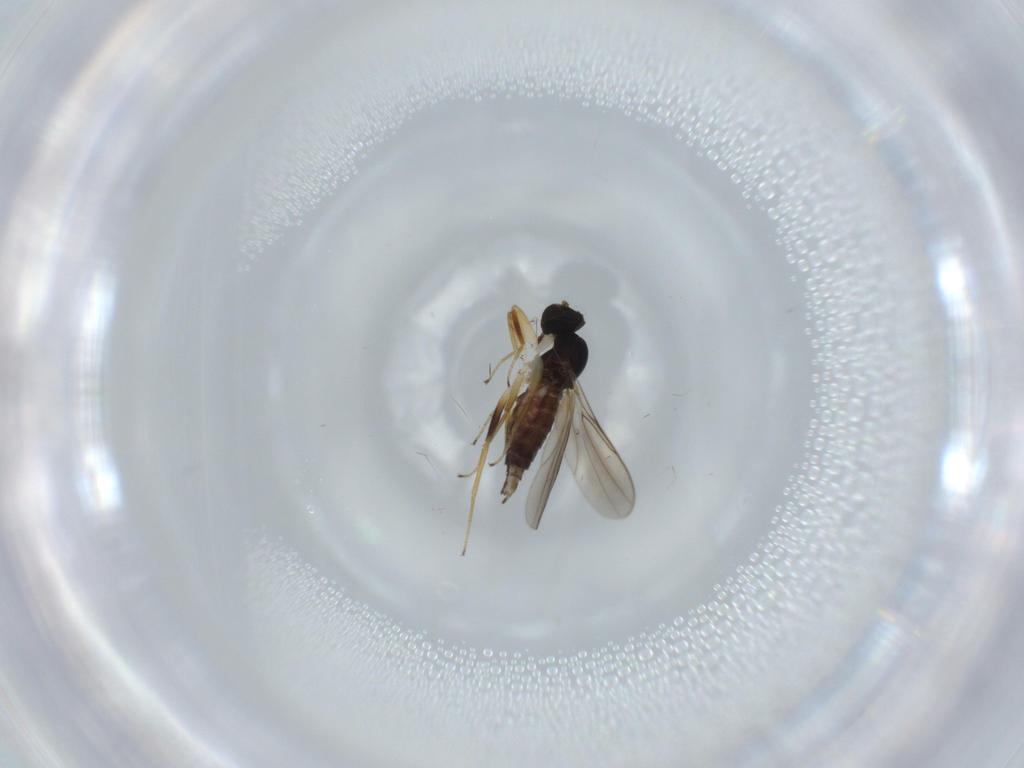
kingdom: Animalia
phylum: Arthropoda
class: Insecta
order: Diptera
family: Hybotidae
